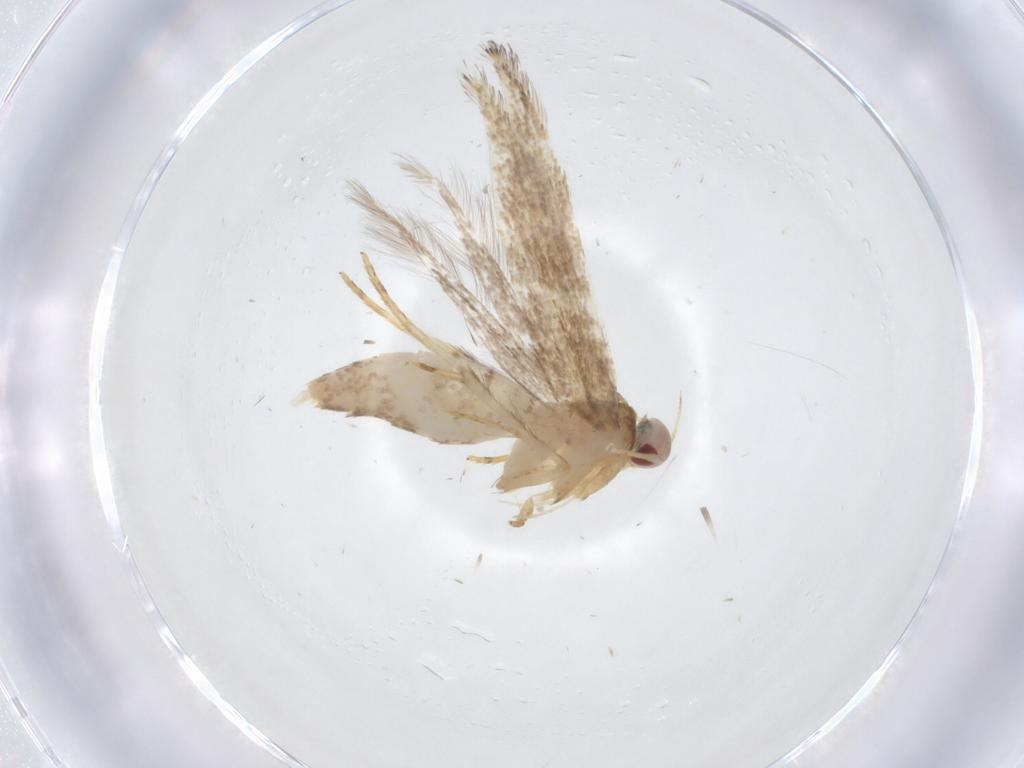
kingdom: Animalia
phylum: Arthropoda
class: Insecta
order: Lepidoptera
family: Cosmopterigidae
